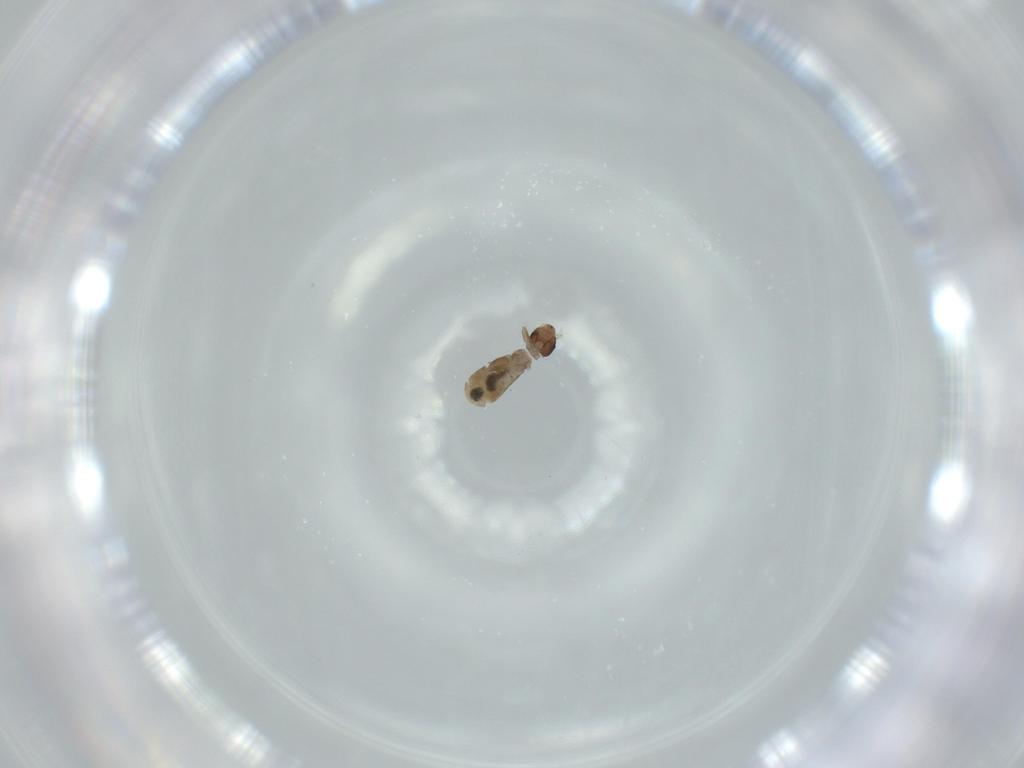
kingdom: Animalia
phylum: Arthropoda
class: Insecta
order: Psocodea
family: Liposcelididae
